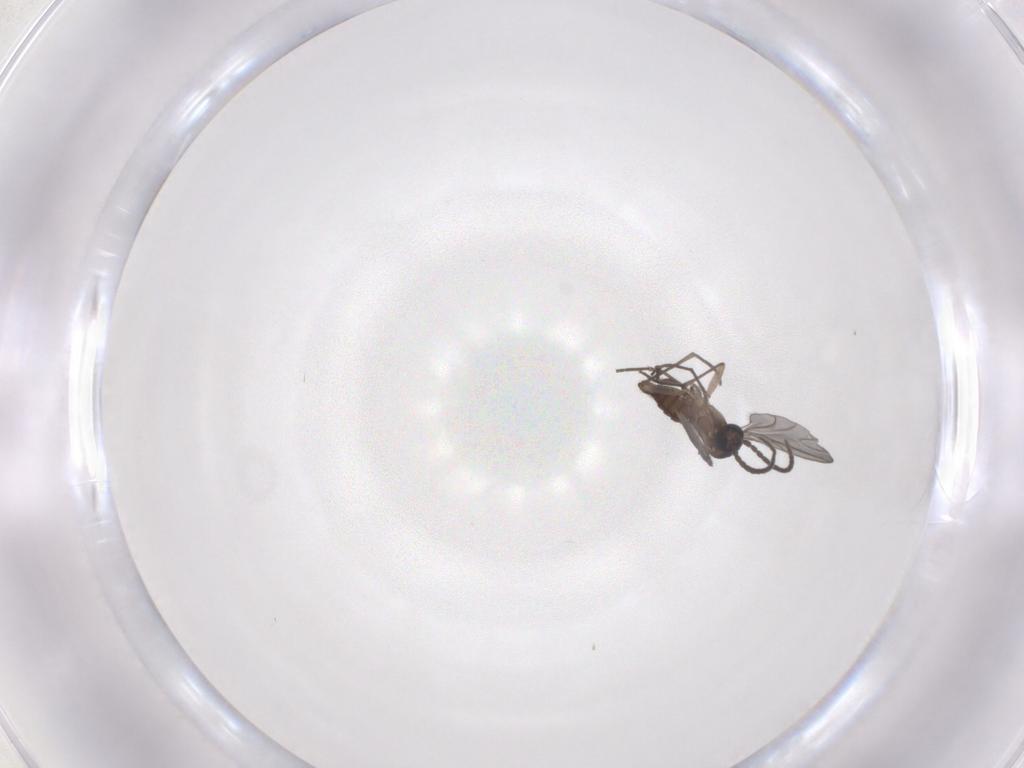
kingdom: Animalia
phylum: Arthropoda
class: Insecta
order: Diptera
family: Sciaridae
